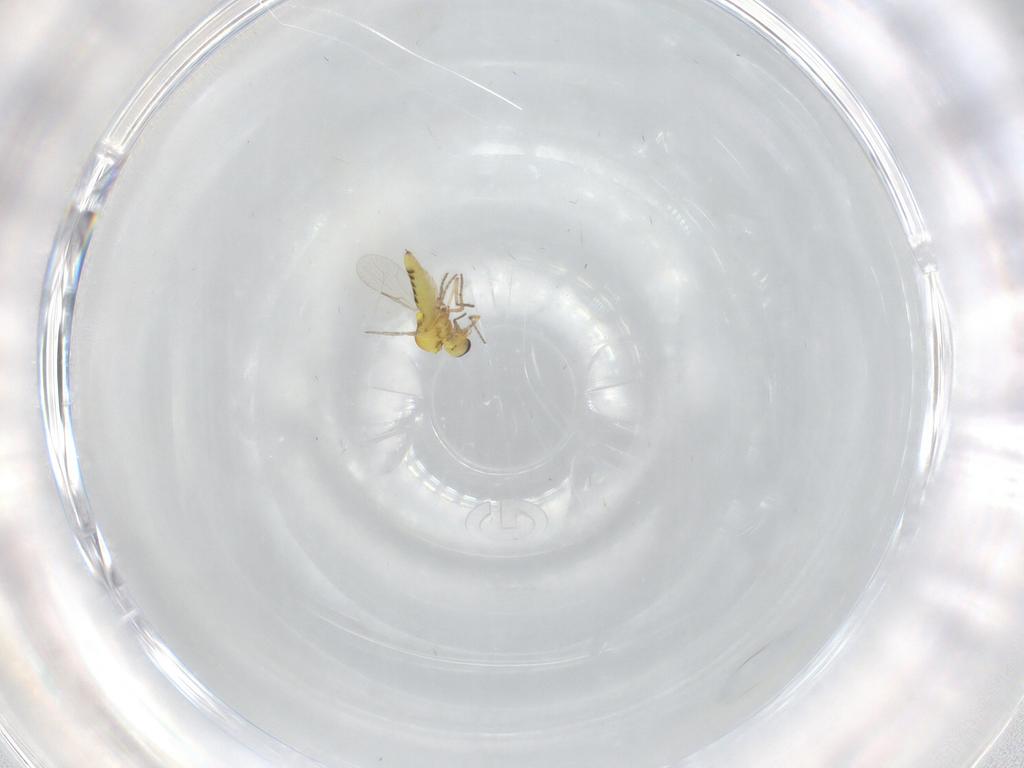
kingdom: Animalia
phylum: Arthropoda
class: Insecta
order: Diptera
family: Ceratopogonidae
